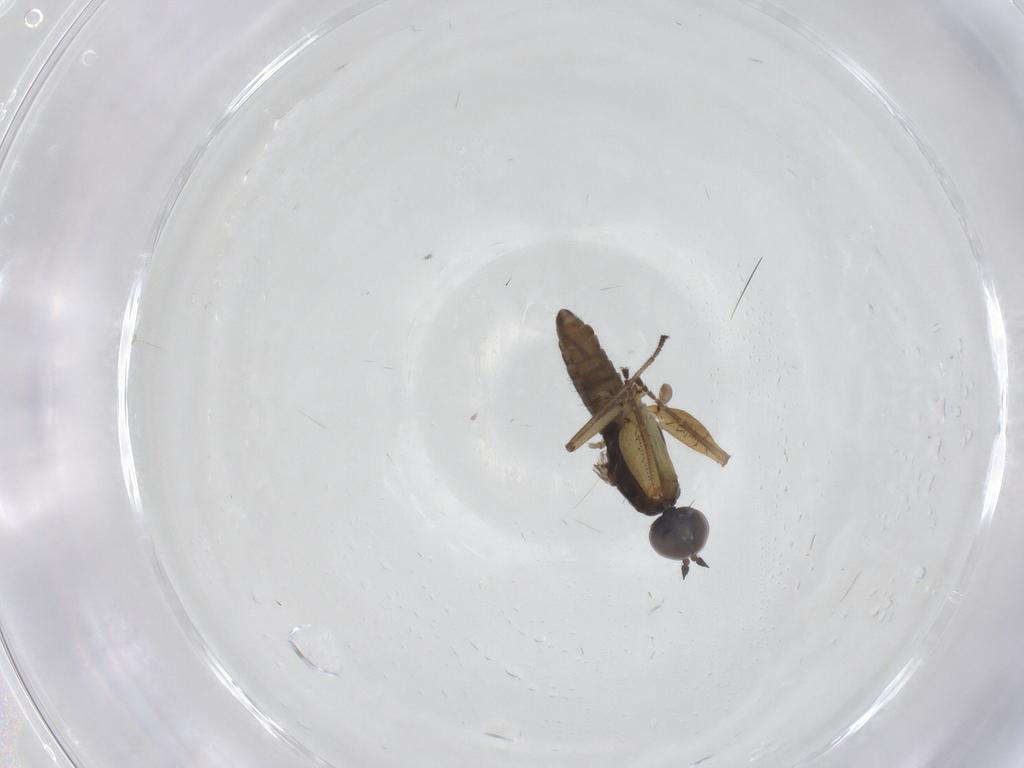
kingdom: Animalia
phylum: Arthropoda
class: Insecta
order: Diptera
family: Empididae
